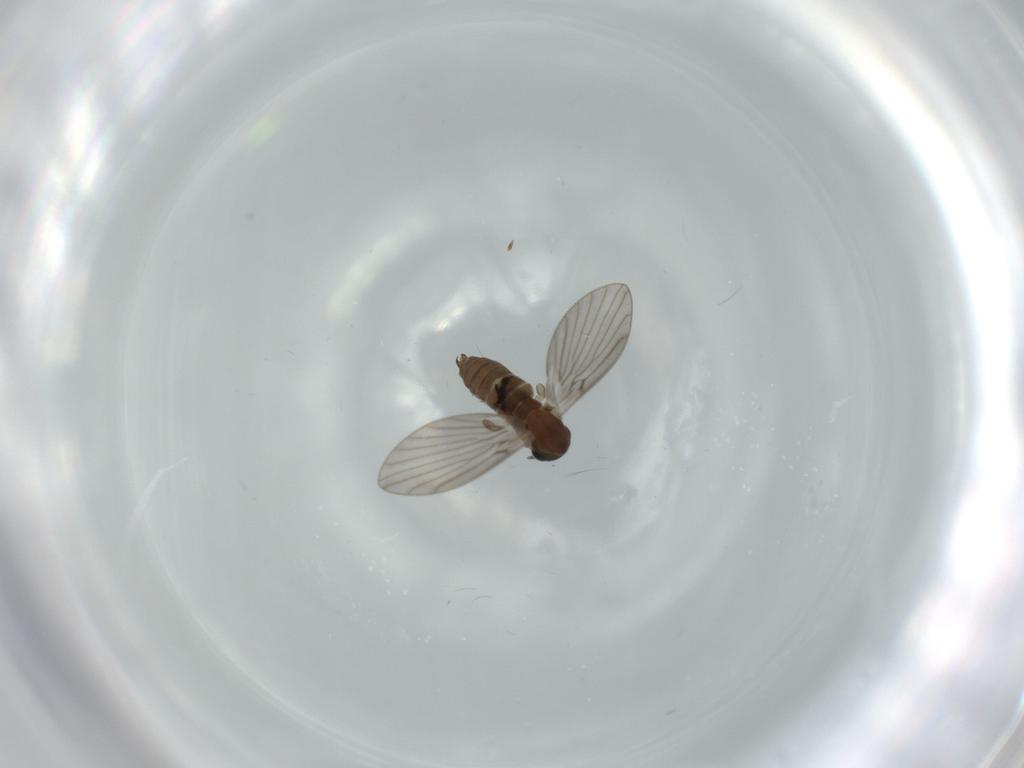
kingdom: Animalia
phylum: Arthropoda
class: Insecta
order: Diptera
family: Psychodidae
